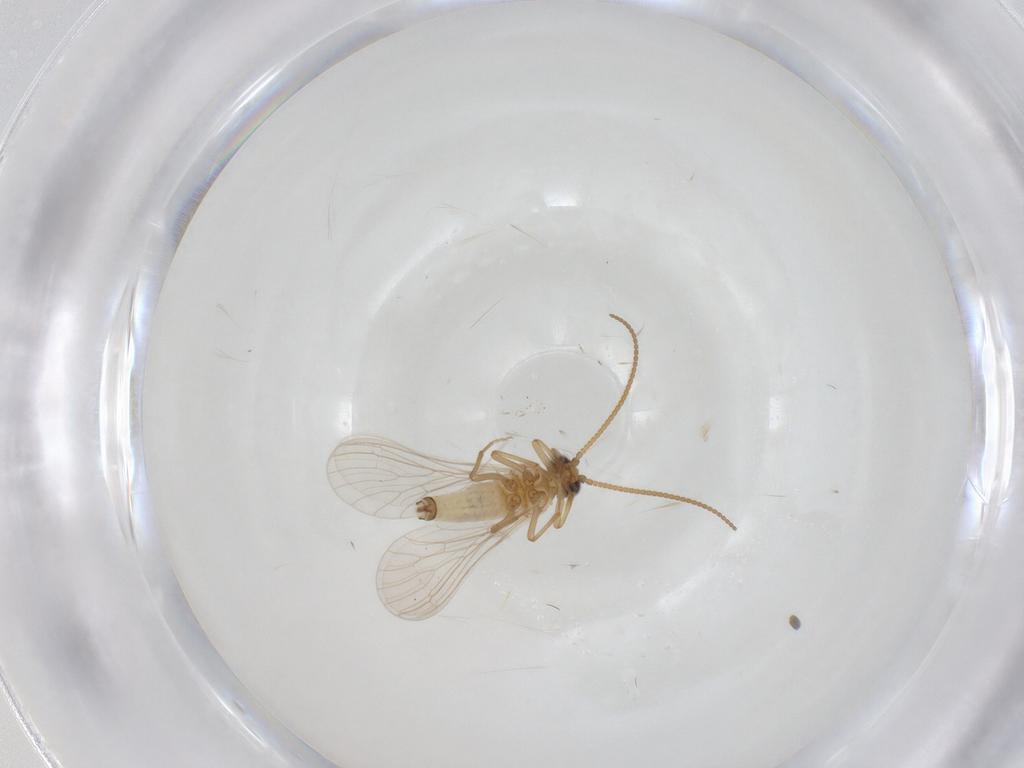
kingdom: Animalia
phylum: Arthropoda
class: Insecta
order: Neuroptera
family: Coniopterygidae
